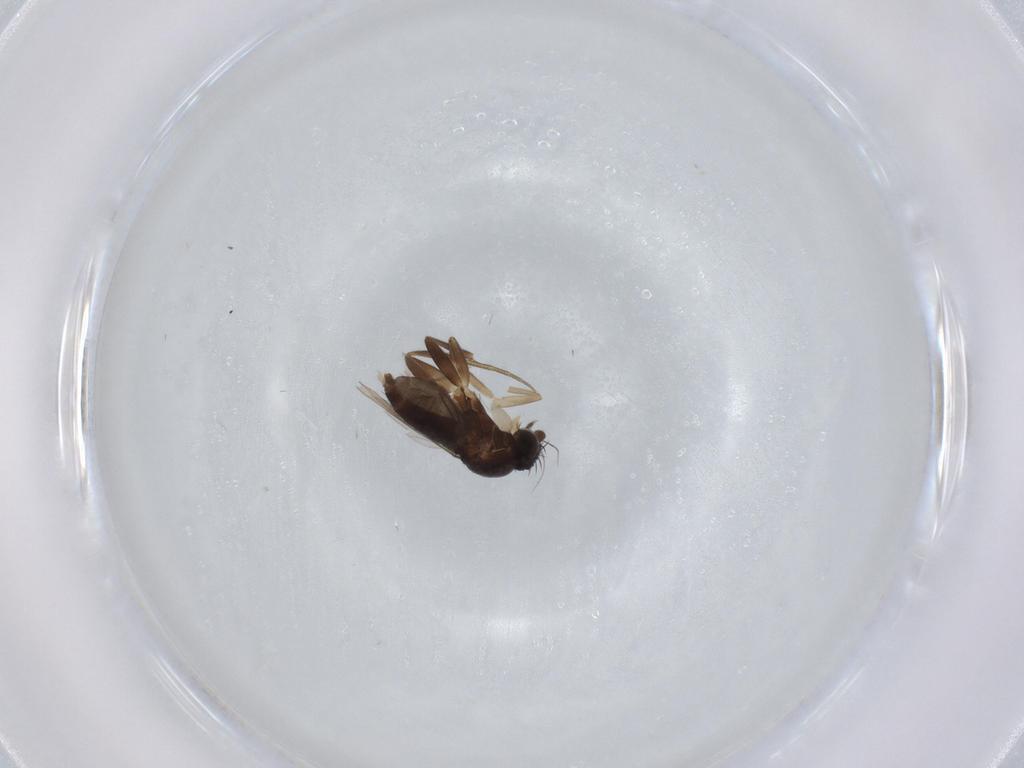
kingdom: Animalia
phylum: Arthropoda
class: Insecta
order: Diptera
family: Phoridae
